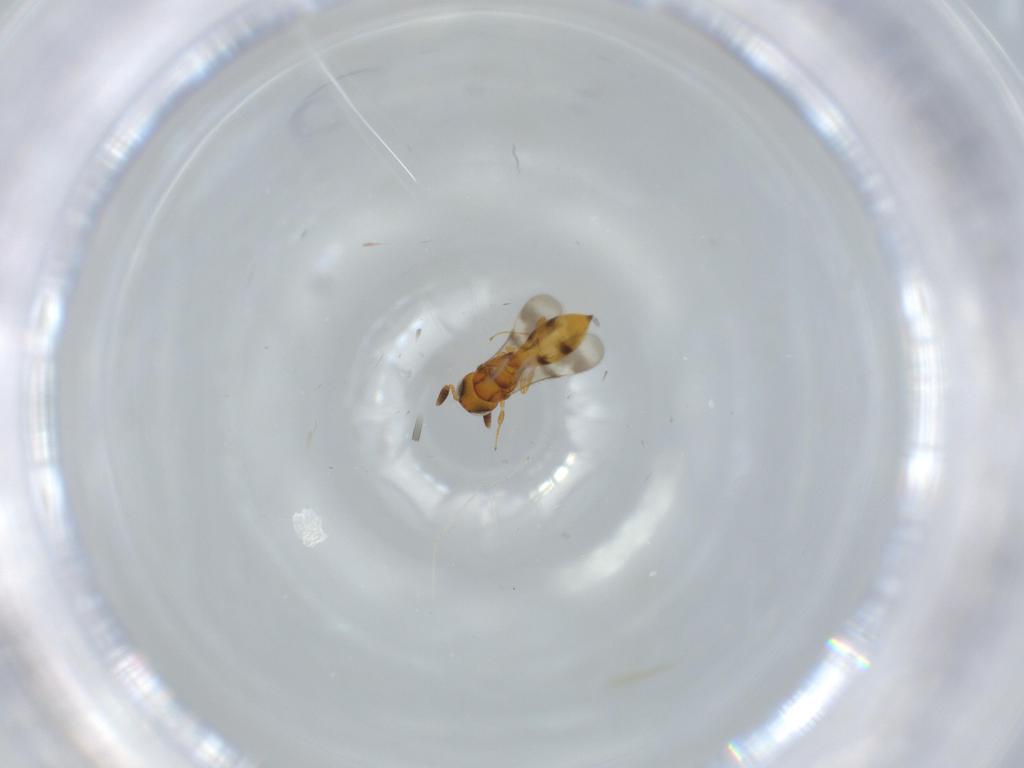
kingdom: Animalia
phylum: Arthropoda
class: Insecta
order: Hymenoptera
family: Scelionidae
